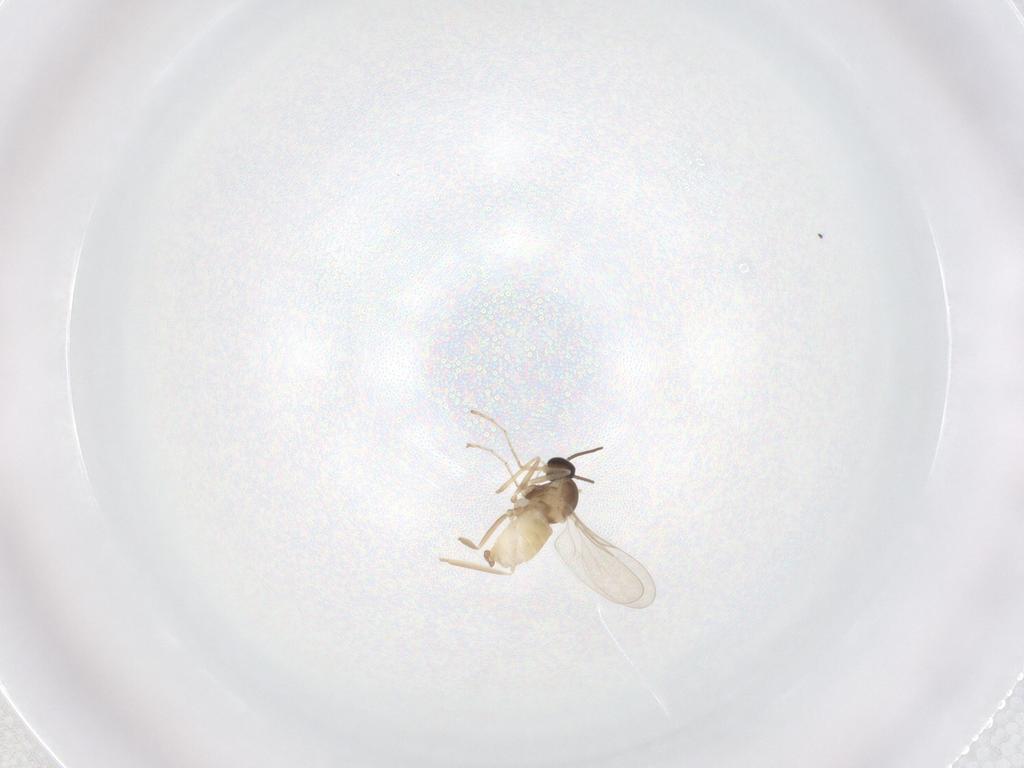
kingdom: Animalia
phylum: Arthropoda
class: Insecta
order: Diptera
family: Cecidomyiidae
